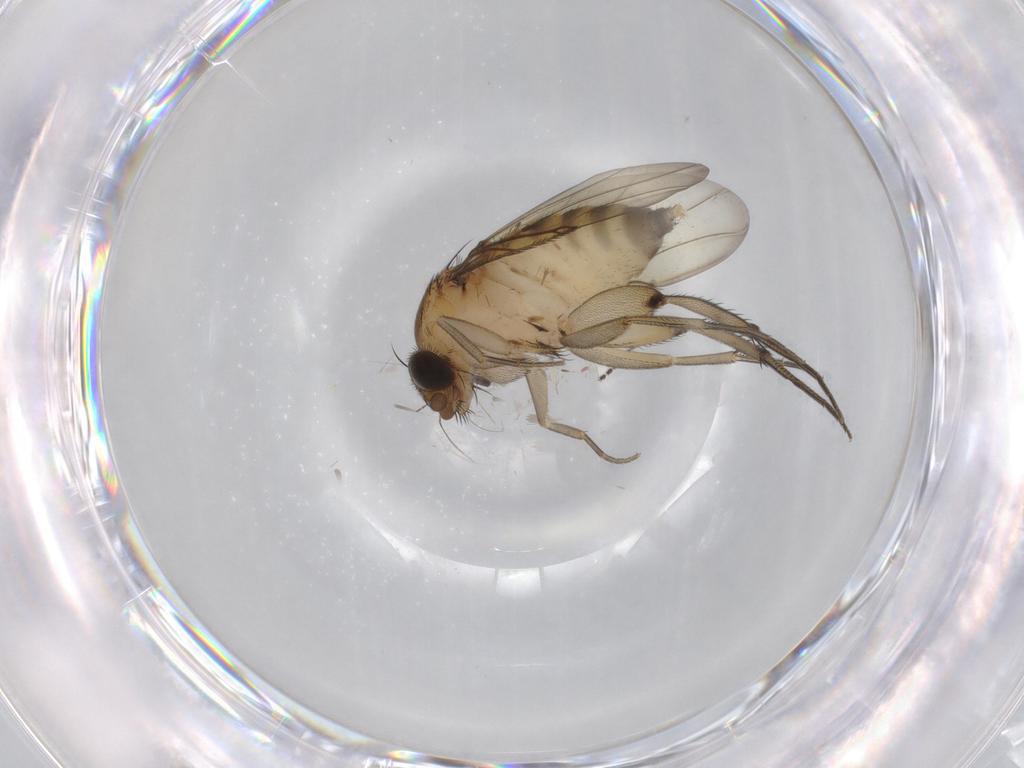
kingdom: Animalia
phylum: Arthropoda
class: Insecta
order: Diptera
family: Phoridae
